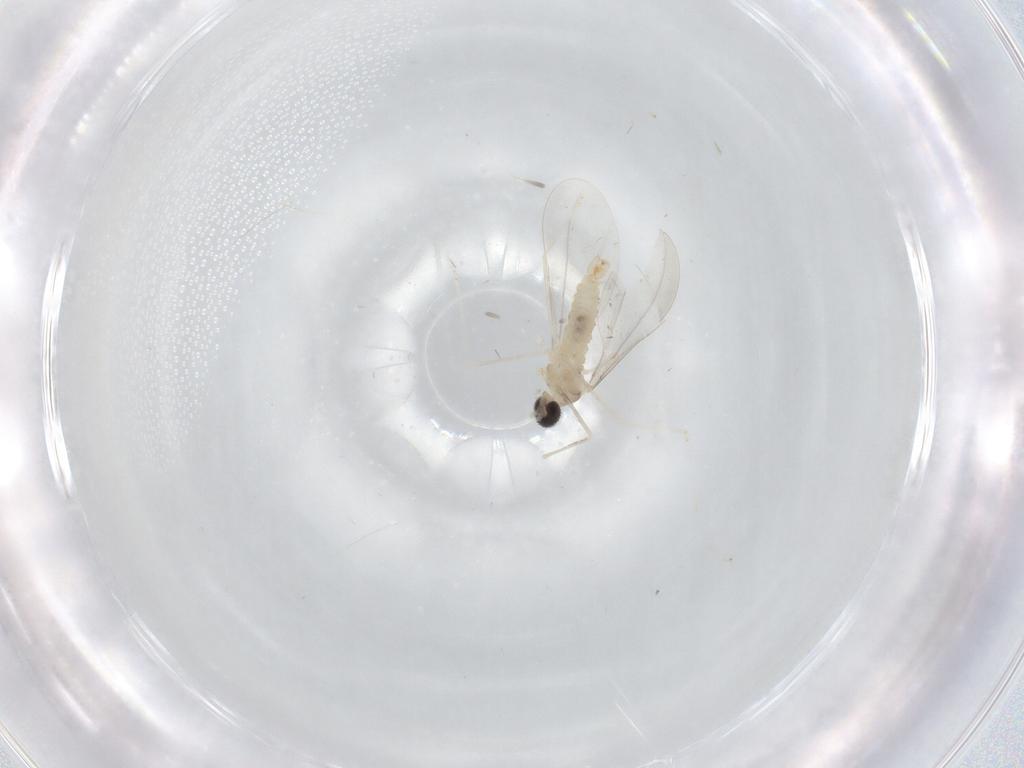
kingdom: Animalia
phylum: Arthropoda
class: Insecta
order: Diptera
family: Cecidomyiidae
